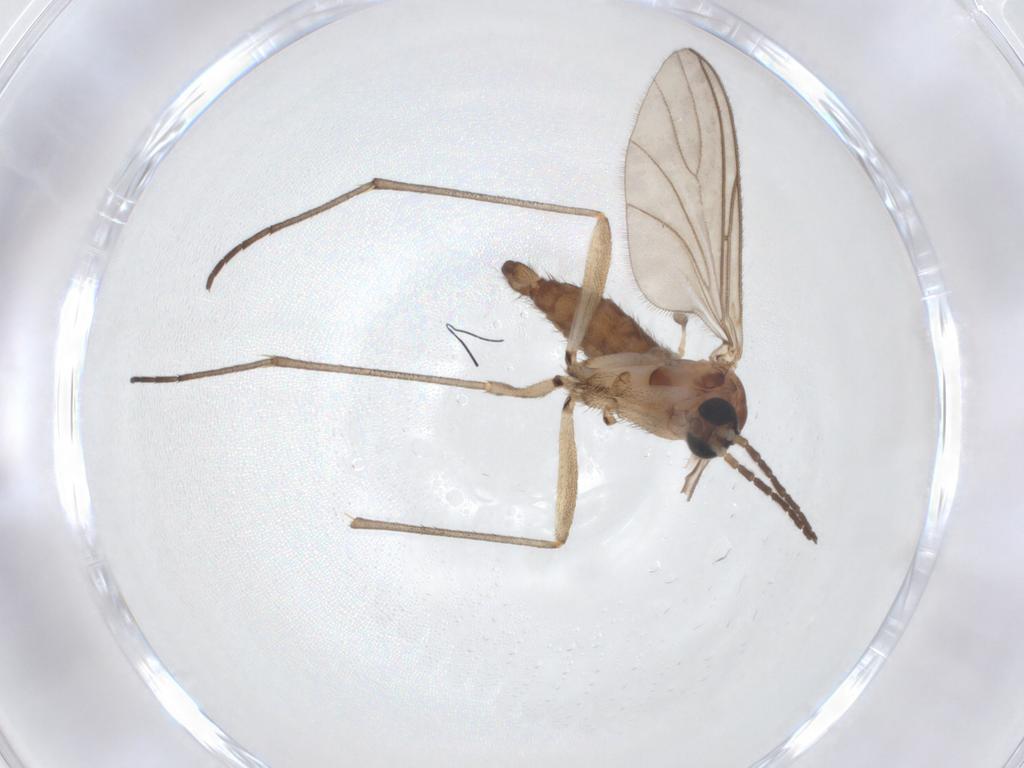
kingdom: Animalia
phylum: Arthropoda
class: Insecta
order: Diptera
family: Sciaridae
